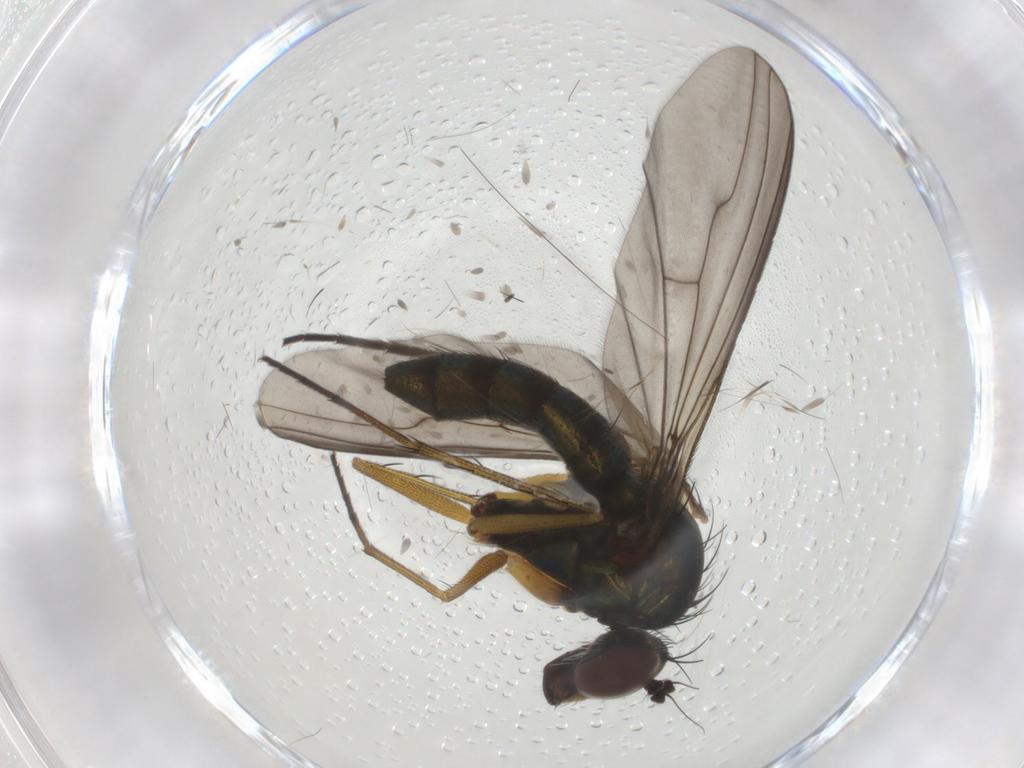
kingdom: Animalia
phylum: Arthropoda
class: Insecta
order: Diptera
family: Dolichopodidae
